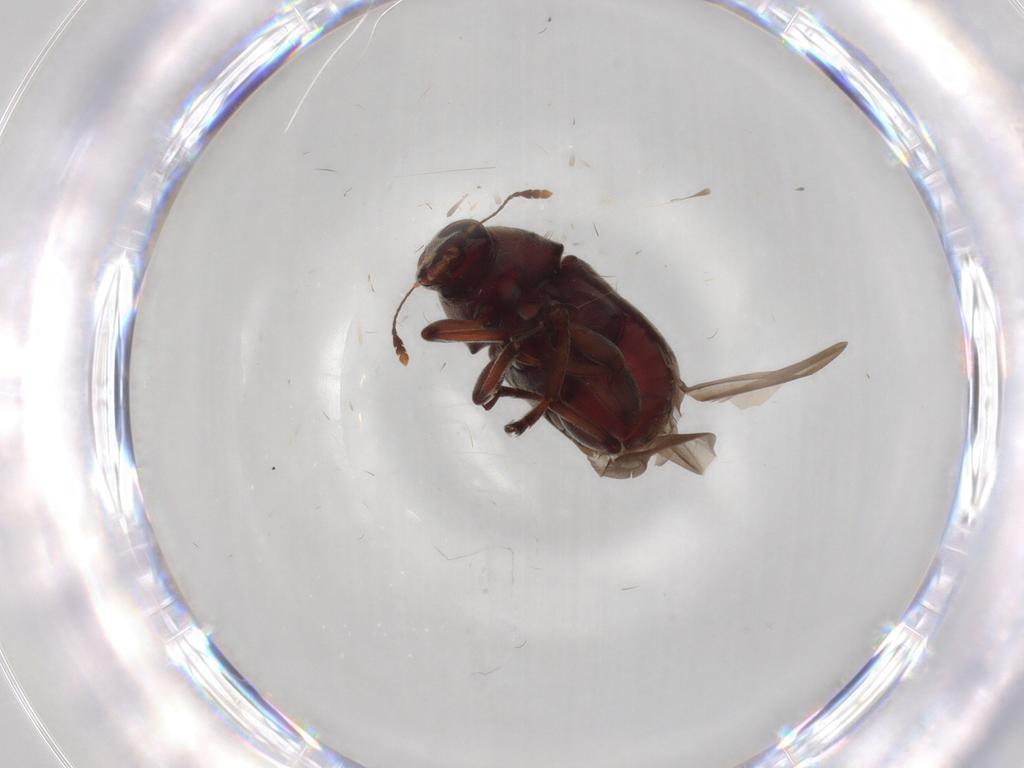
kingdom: Animalia
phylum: Arthropoda
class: Insecta
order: Coleoptera
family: Anthribidae
